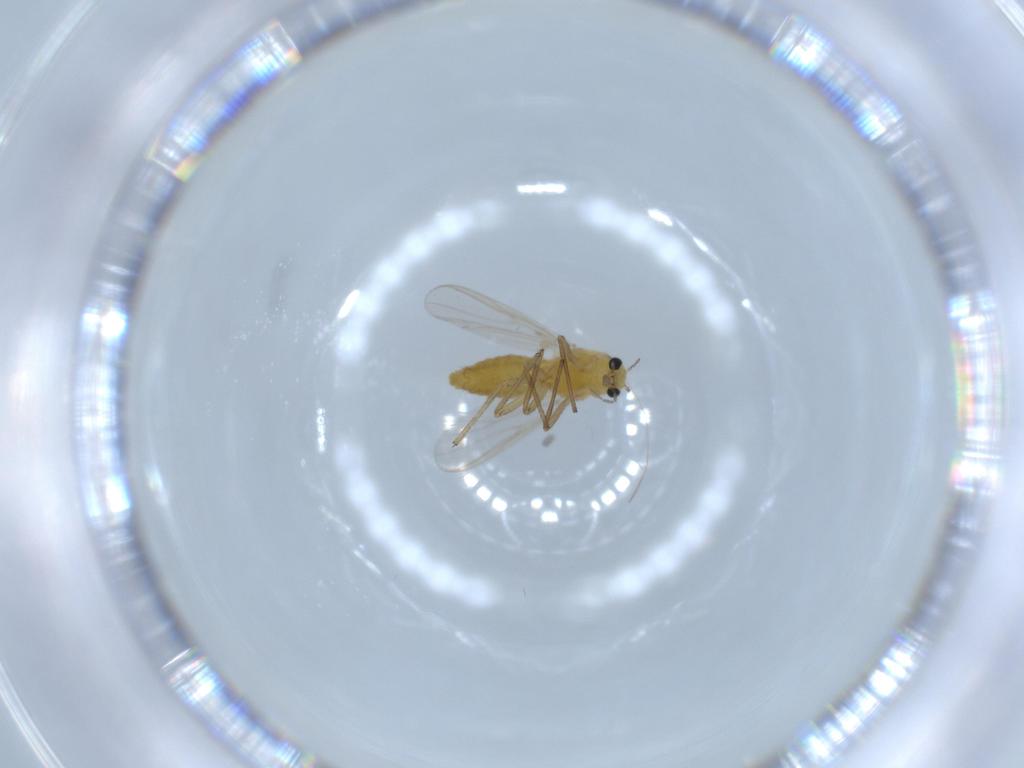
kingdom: Animalia
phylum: Arthropoda
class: Insecta
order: Diptera
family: Chironomidae
